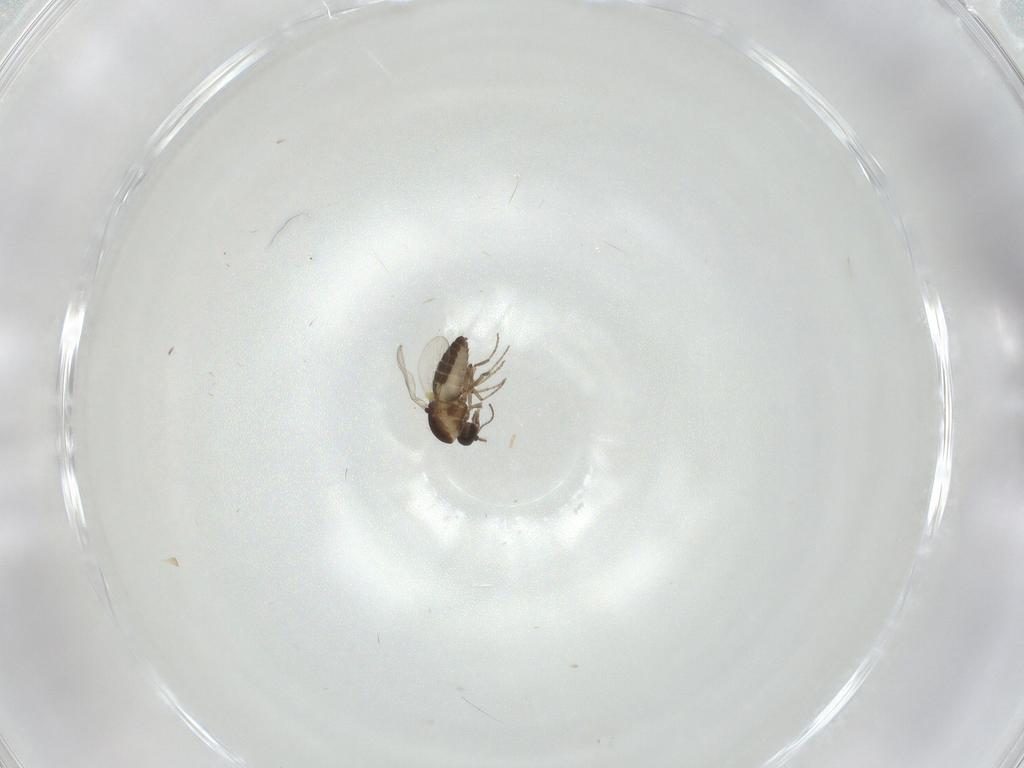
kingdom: Animalia
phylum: Arthropoda
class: Insecta
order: Diptera
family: Ceratopogonidae
